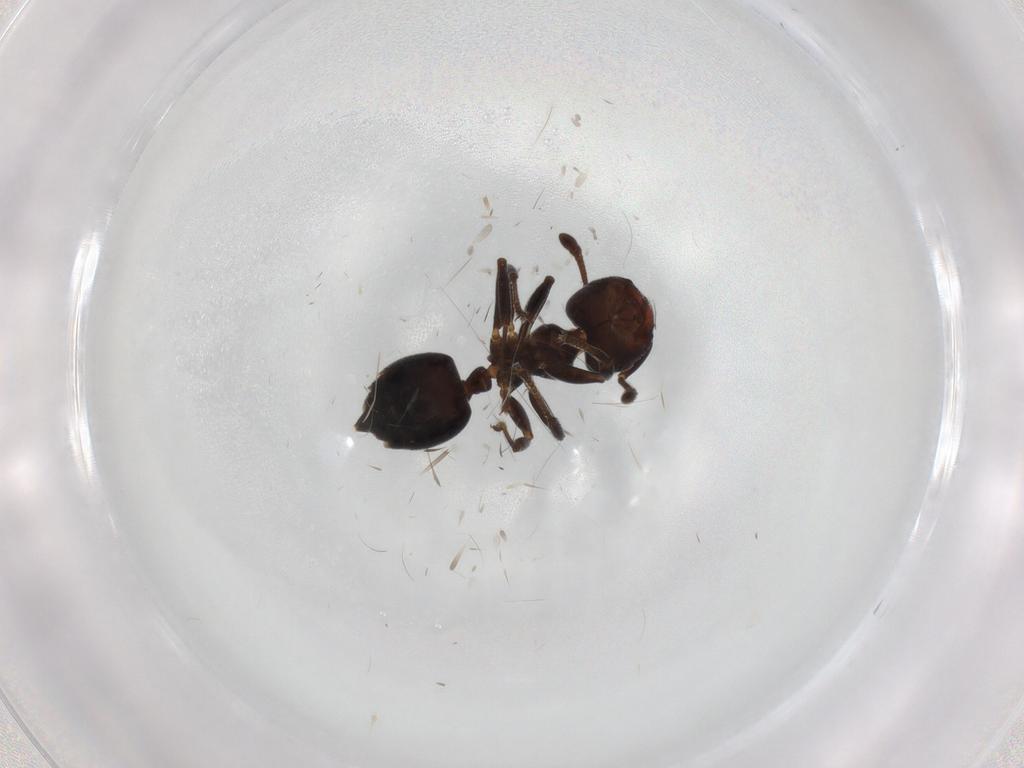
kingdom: Animalia
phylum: Arthropoda
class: Insecta
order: Hymenoptera
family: Formicidae
